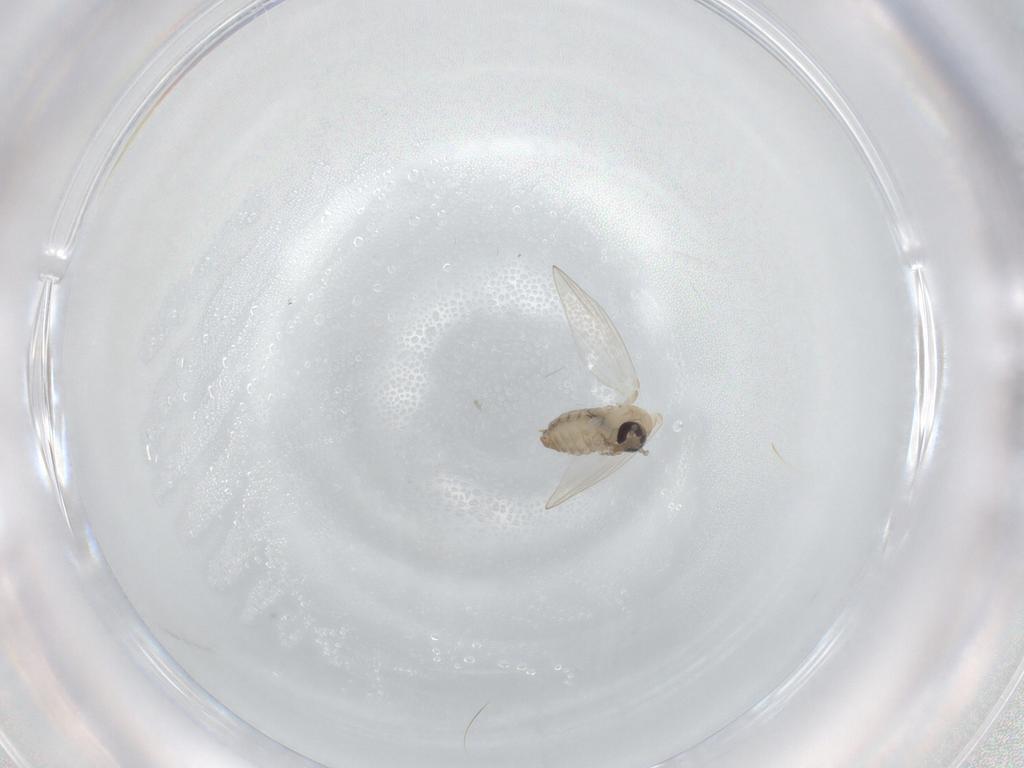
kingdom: Animalia
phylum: Arthropoda
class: Insecta
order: Diptera
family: Psychodidae
